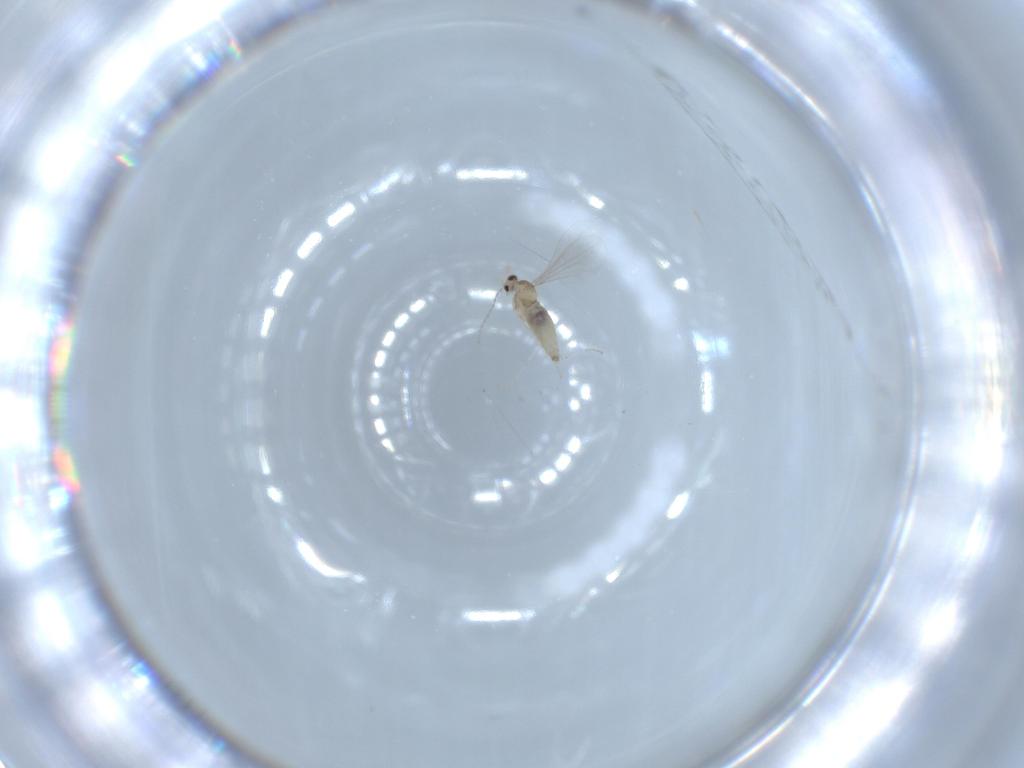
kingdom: Animalia
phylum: Arthropoda
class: Insecta
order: Diptera
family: Cecidomyiidae
